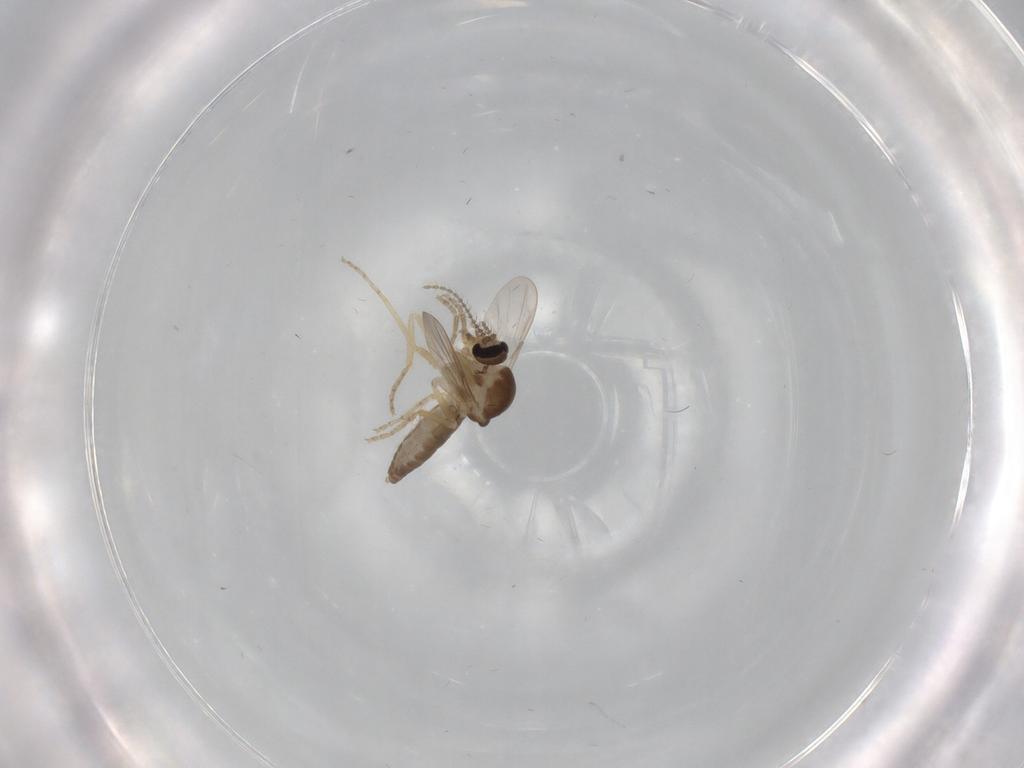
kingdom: Animalia
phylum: Arthropoda
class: Insecta
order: Diptera
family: Ceratopogonidae
